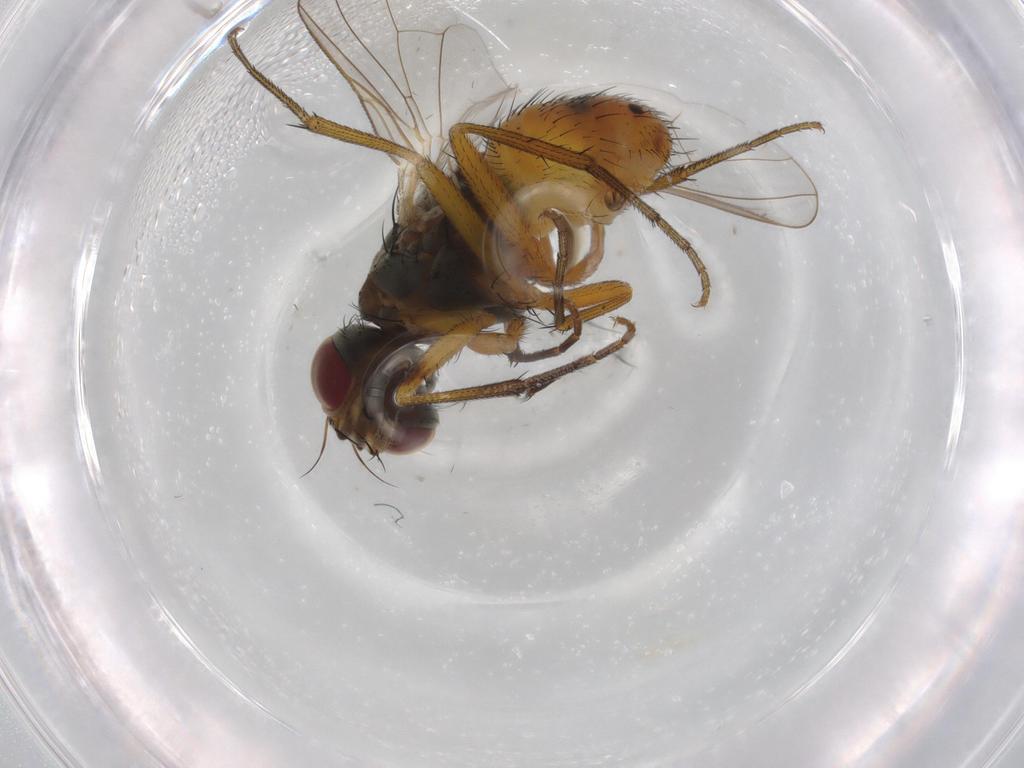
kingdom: Animalia
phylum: Arthropoda
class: Insecta
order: Diptera
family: Muscidae
